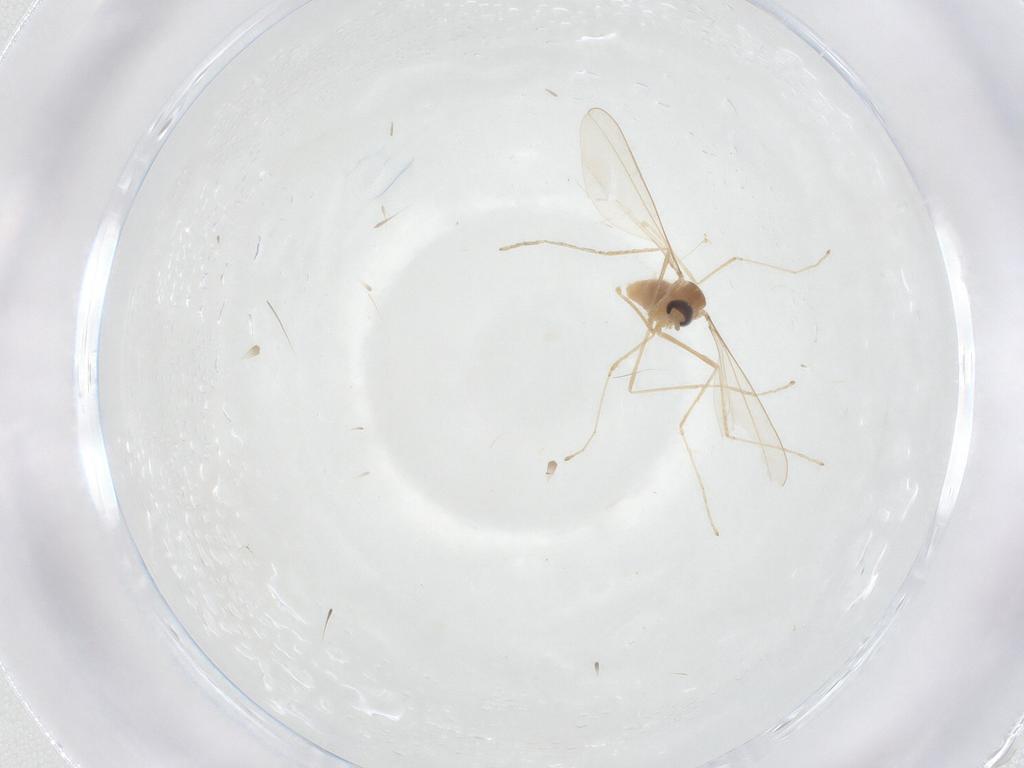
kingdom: Animalia
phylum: Arthropoda
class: Insecta
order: Diptera
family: Cecidomyiidae
